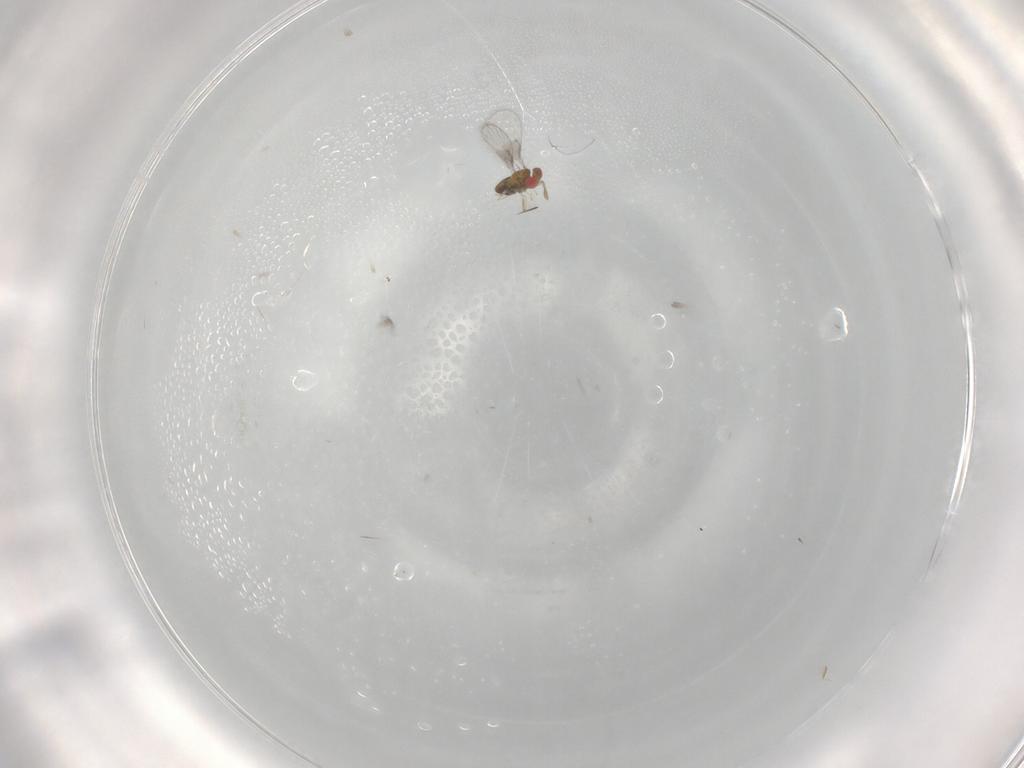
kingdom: Animalia
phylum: Arthropoda
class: Insecta
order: Hymenoptera
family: Trichogrammatidae
